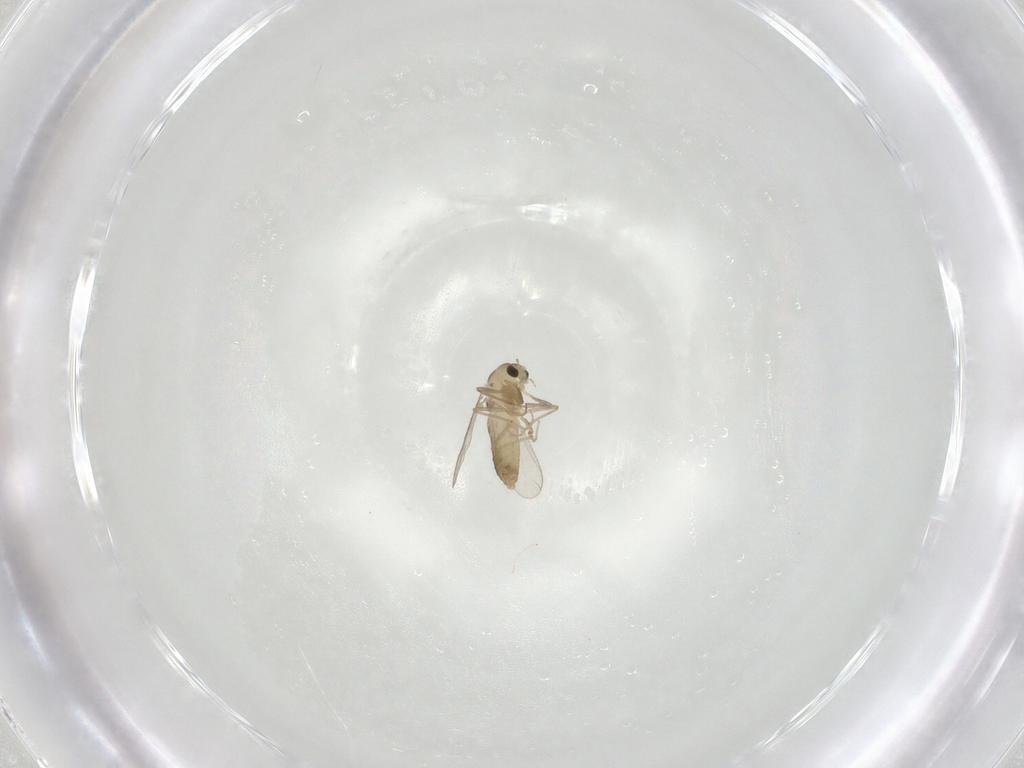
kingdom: Animalia
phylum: Arthropoda
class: Insecta
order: Diptera
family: Chironomidae
